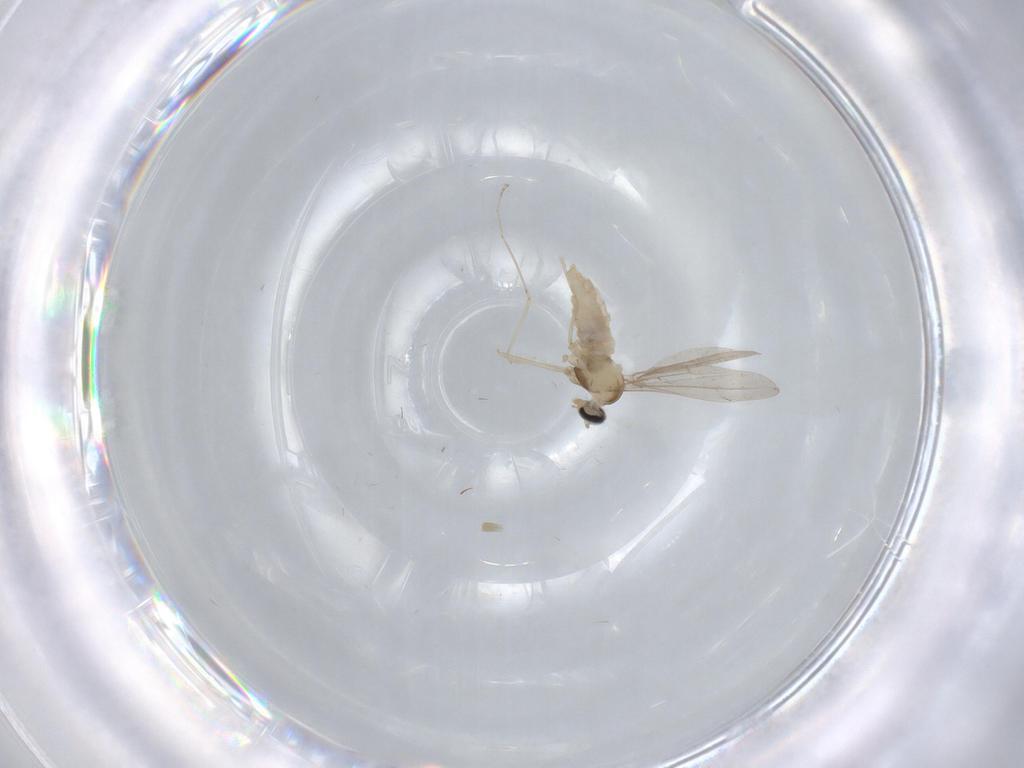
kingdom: Animalia
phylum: Arthropoda
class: Insecta
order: Diptera
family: Cecidomyiidae
